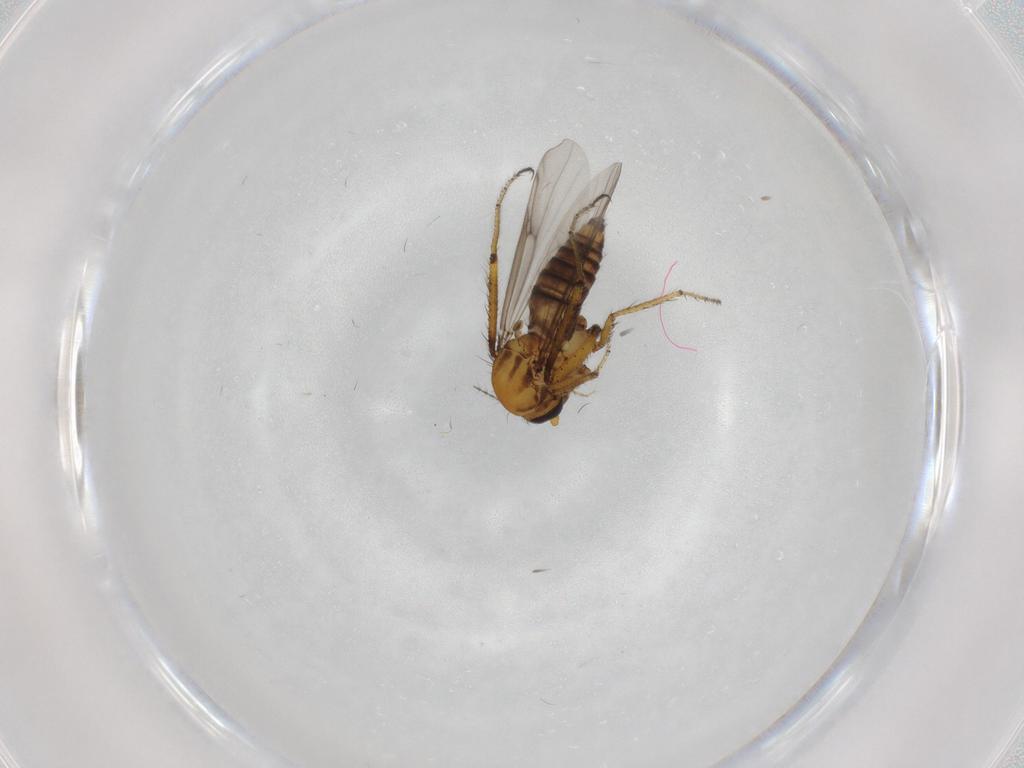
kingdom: Animalia
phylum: Arthropoda
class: Insecta
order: Diptera
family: Ceratopogonidae
